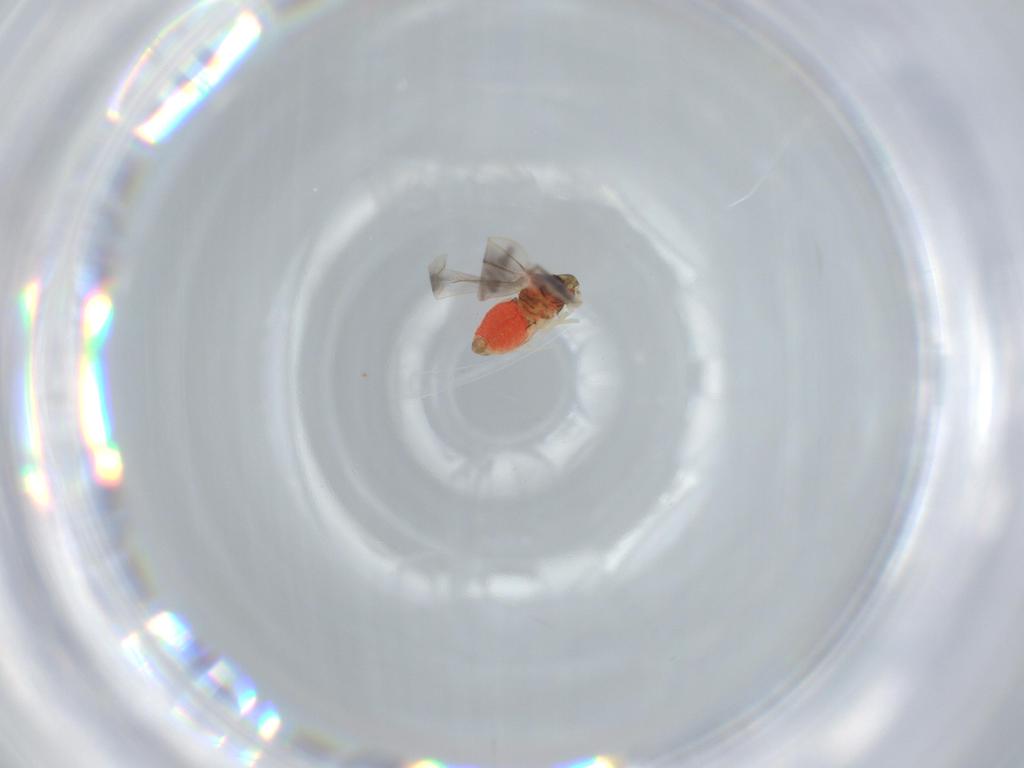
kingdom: Animalia
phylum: Arthropoda
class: Insecta
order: Hemiptera
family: Aleyrodidae
